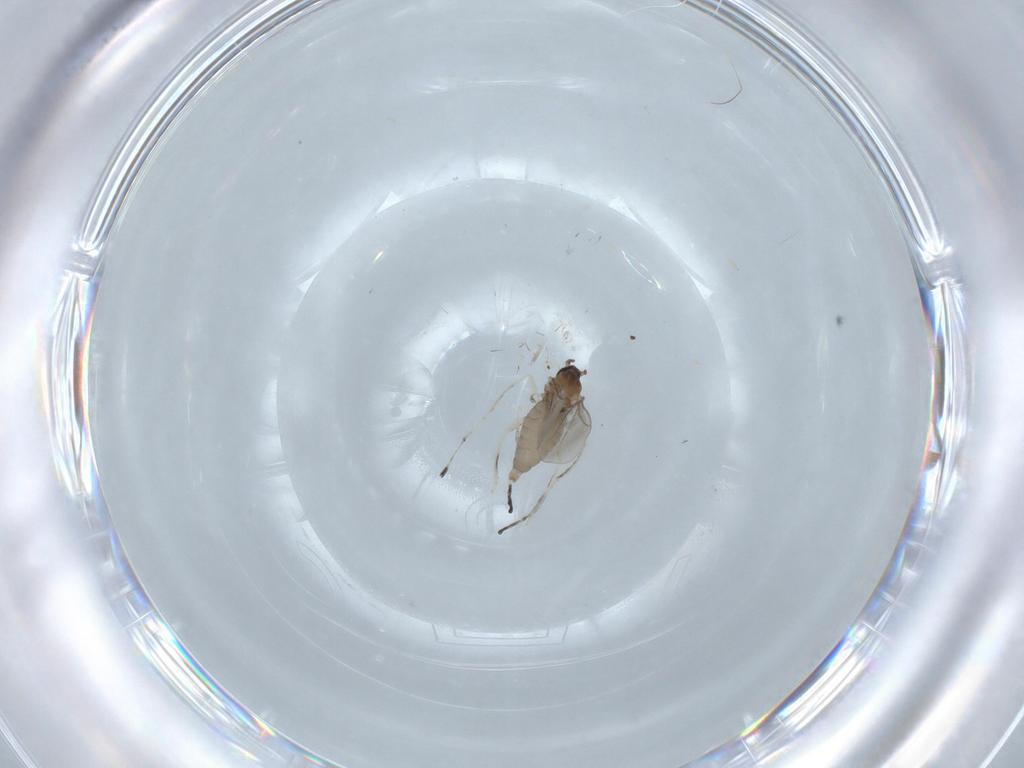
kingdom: Animalia
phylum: Arthropoda
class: Insecta
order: Diptera
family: Cecidomyiidae
